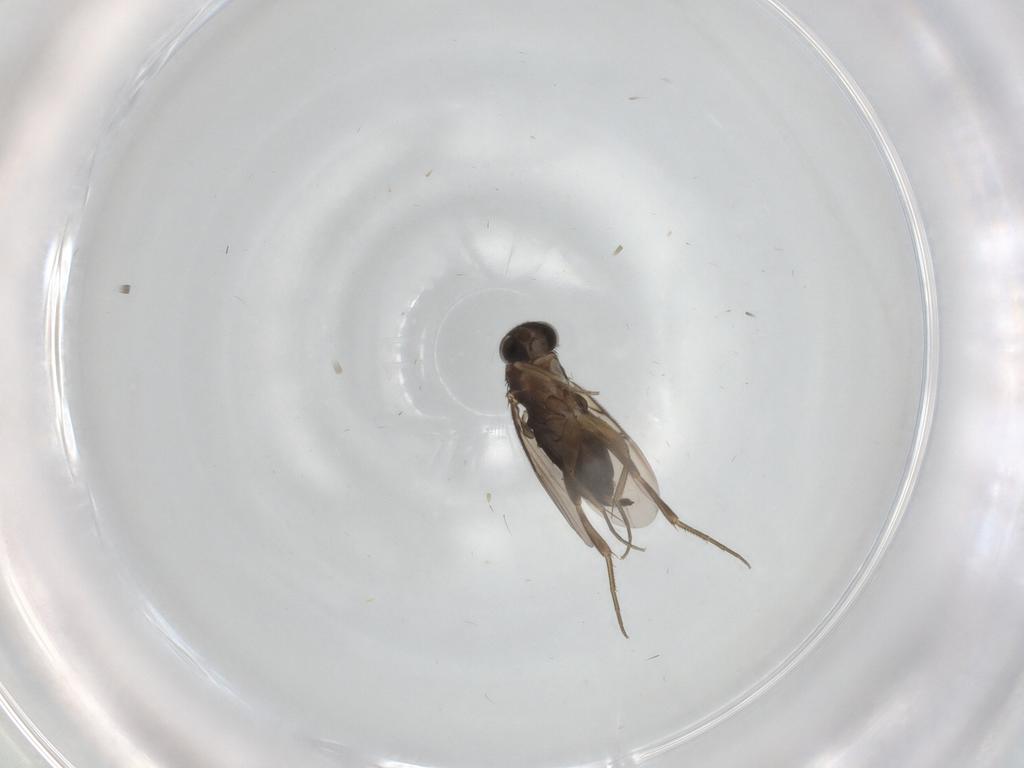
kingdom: Animalia
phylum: Arthropoda
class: Insecta
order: Diptera
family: Phoridae
